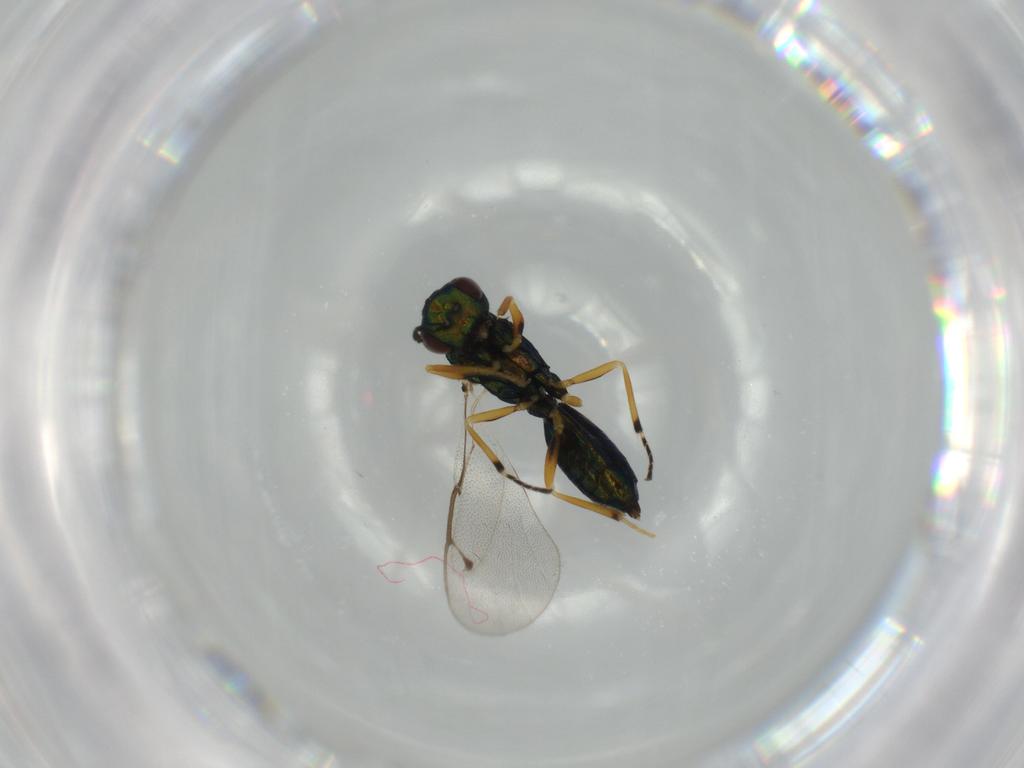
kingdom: Animalia
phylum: Arthropoda
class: Insecta
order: Hymenoptera
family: Pteromalidae
